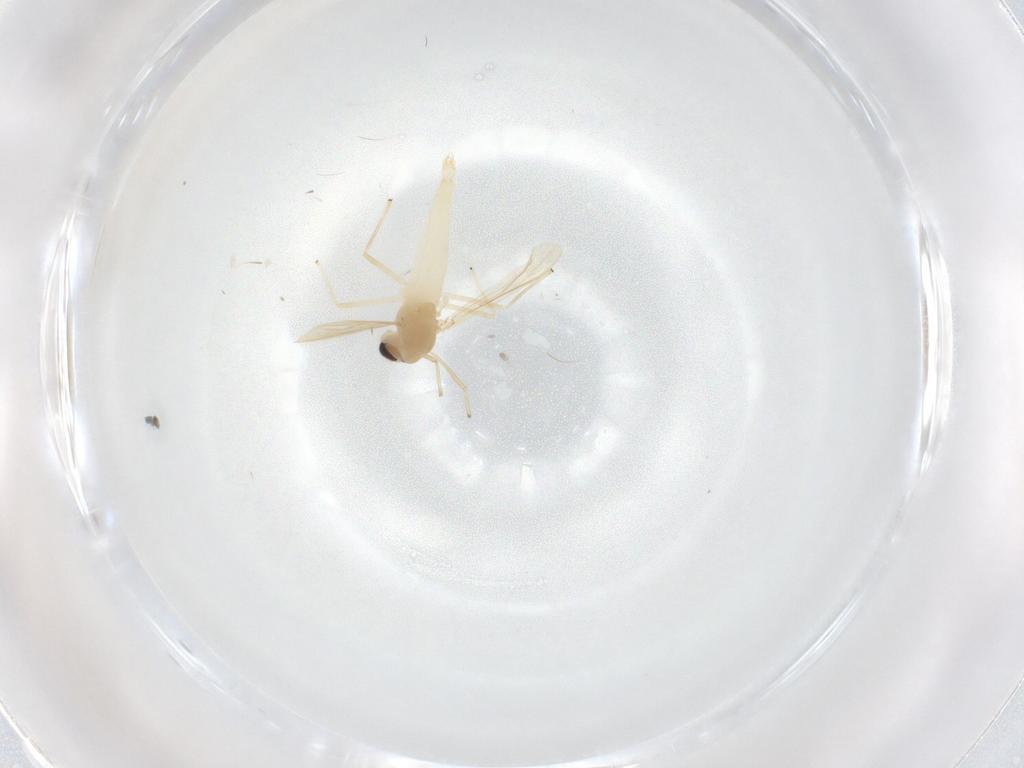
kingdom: Animalia
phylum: Arthropoda
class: Insecta
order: Diptera
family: Chironomidae
